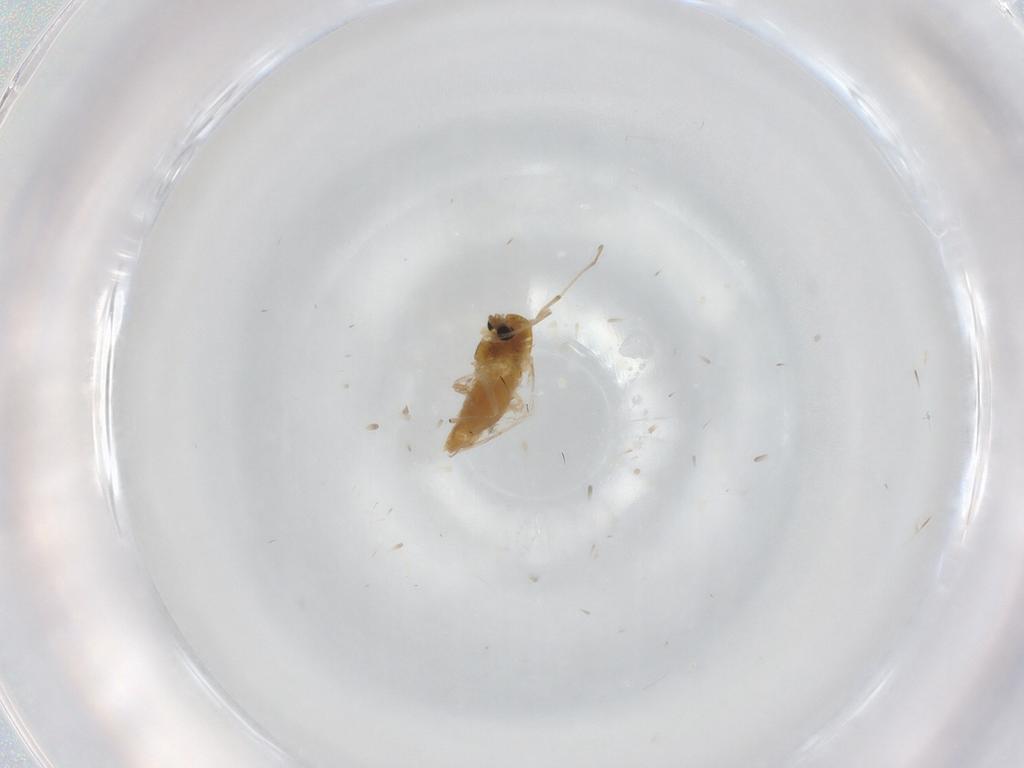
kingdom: Animalia
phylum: Arthropoda
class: Insecta
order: Diptera
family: Chironomidae
